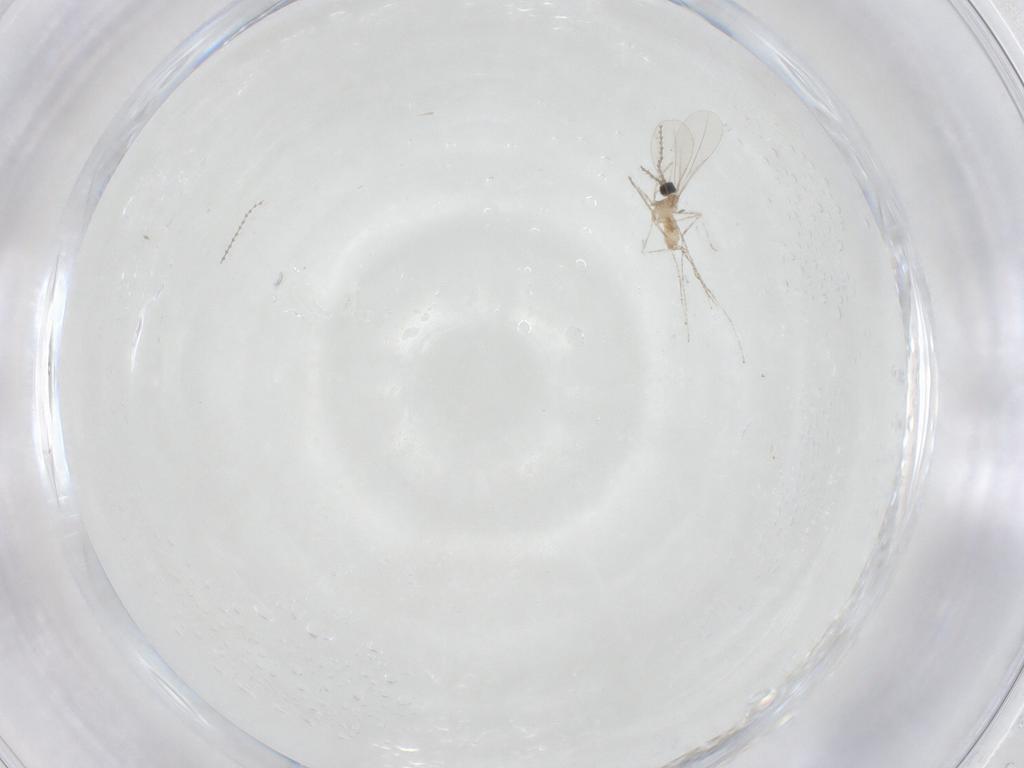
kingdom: Animalia
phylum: Arthropoda
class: Insecta
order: Diptera
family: Cecidomyiidae
